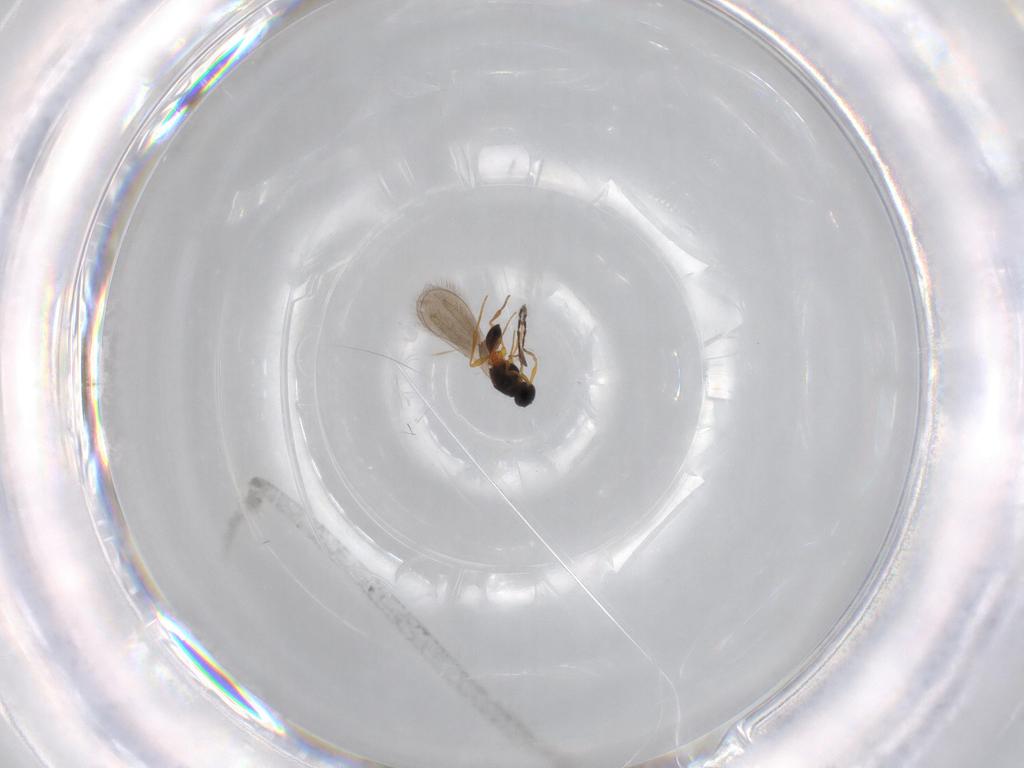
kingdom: Animalia
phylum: Arthropoda
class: Insecta
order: Hymenoptera
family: Platygastridae
